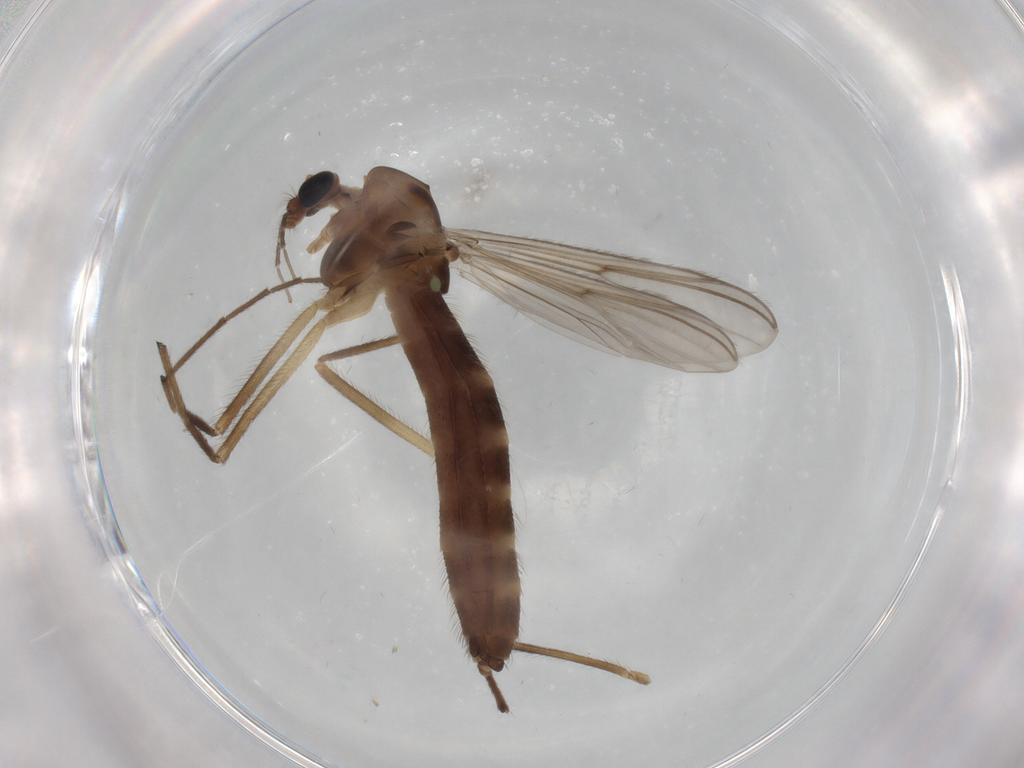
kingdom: Animalia
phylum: Arthropoda
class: Insecta
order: Diptera
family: Chironomidae
